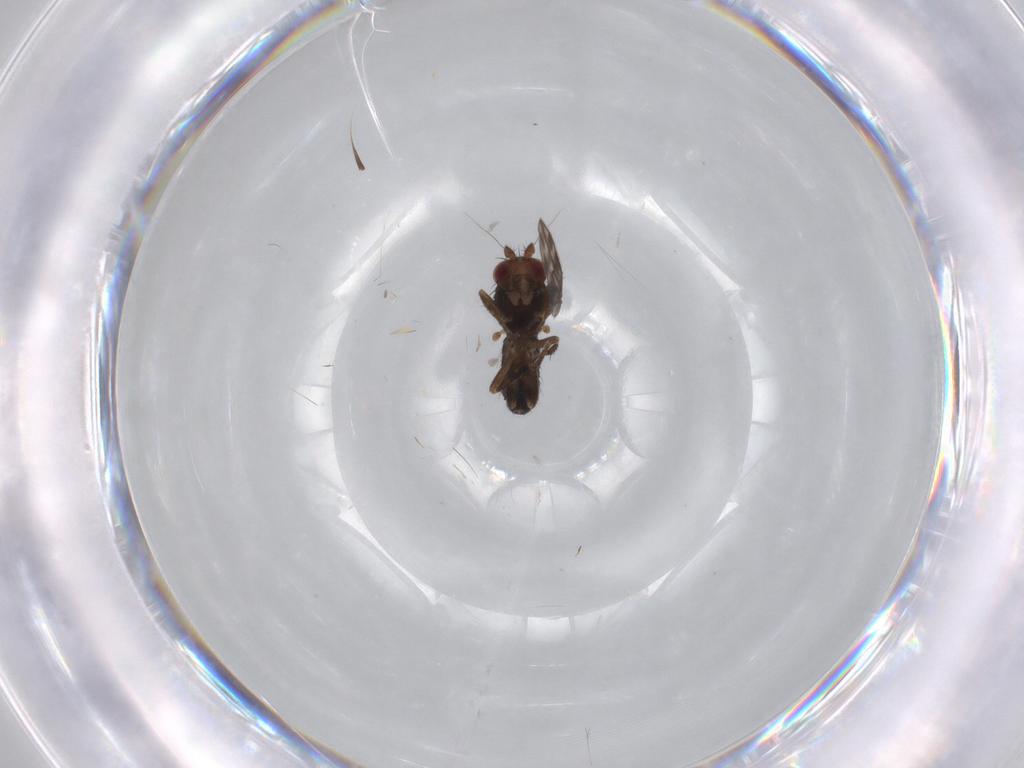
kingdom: Animalia
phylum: Arthropoda
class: Insecta
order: Diptera
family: Sphaeroceridae
